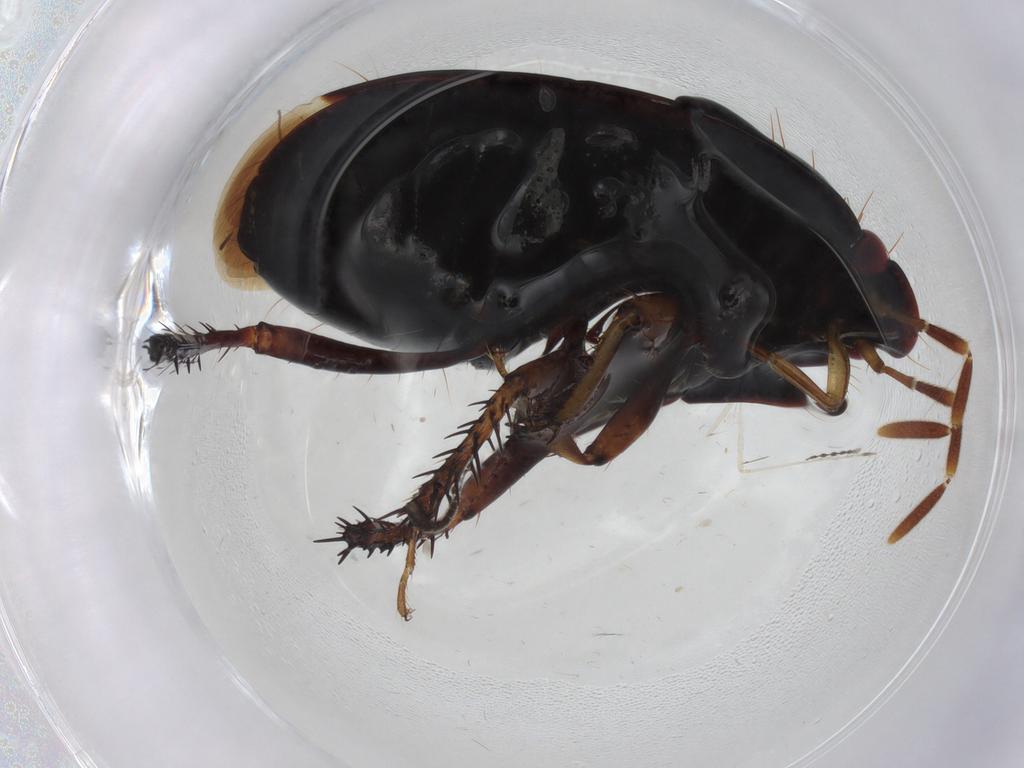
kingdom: Animalia
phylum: Arthropoda
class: Insecta
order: Hemiptera
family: Cydnidae
